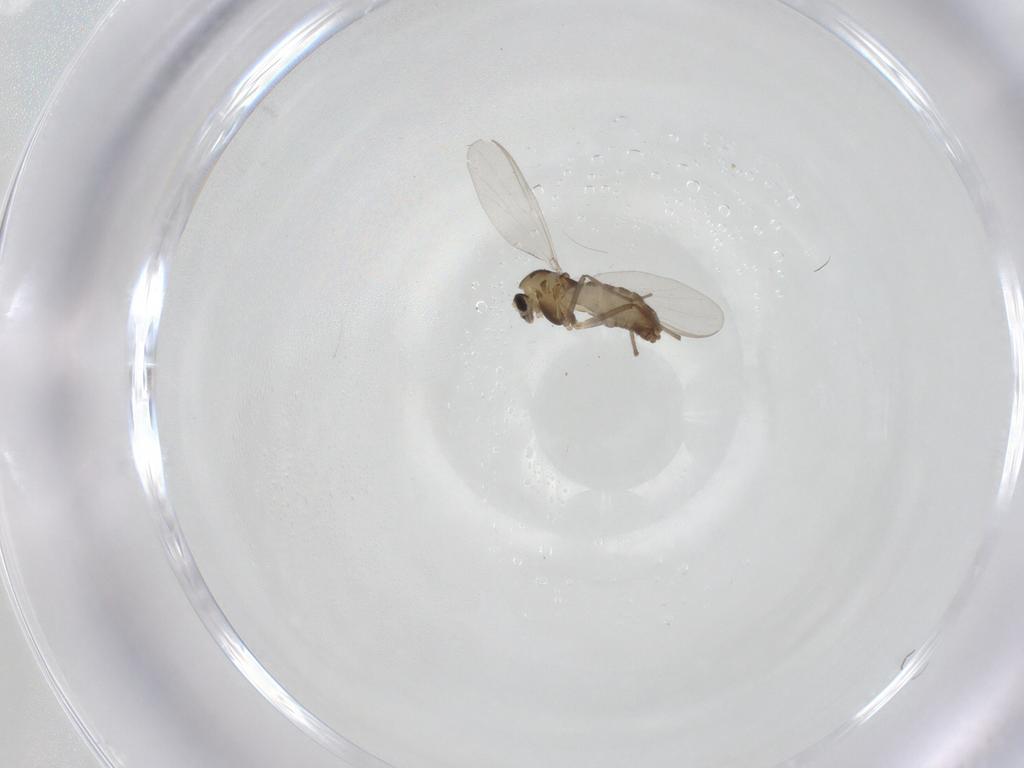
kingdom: Animalia
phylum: Arthropoda
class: Insecta
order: Diptera
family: Chironomidae
